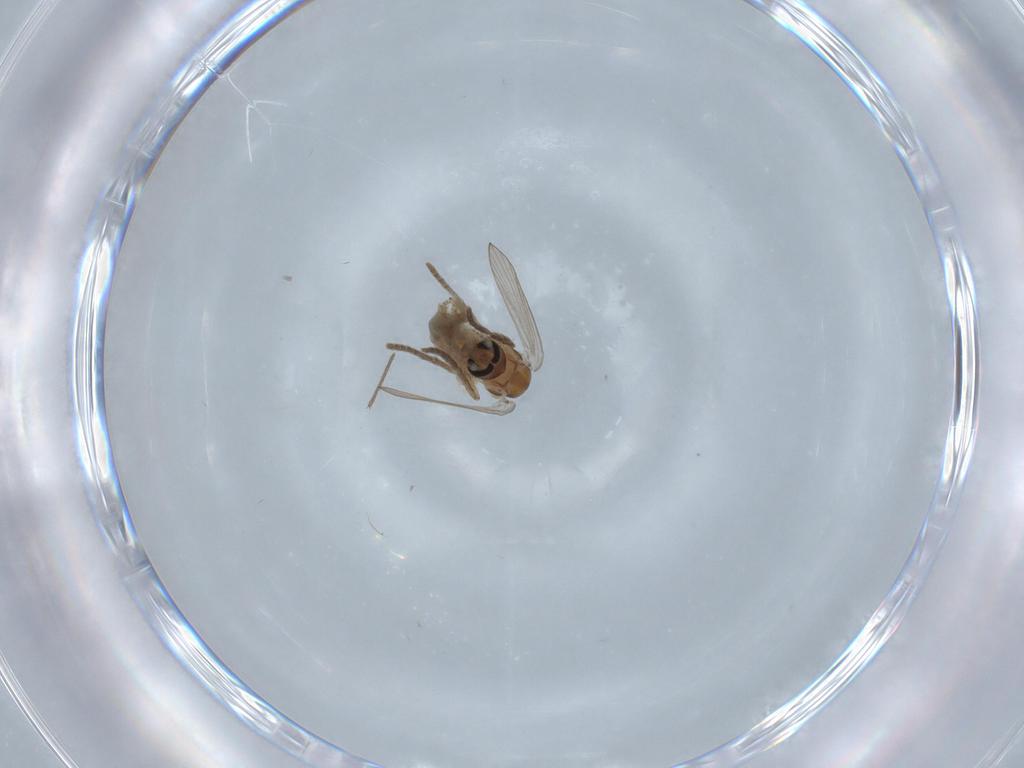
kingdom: Animalia
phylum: Arthropoda
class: Insecta
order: Diptera
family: Psychodidae
